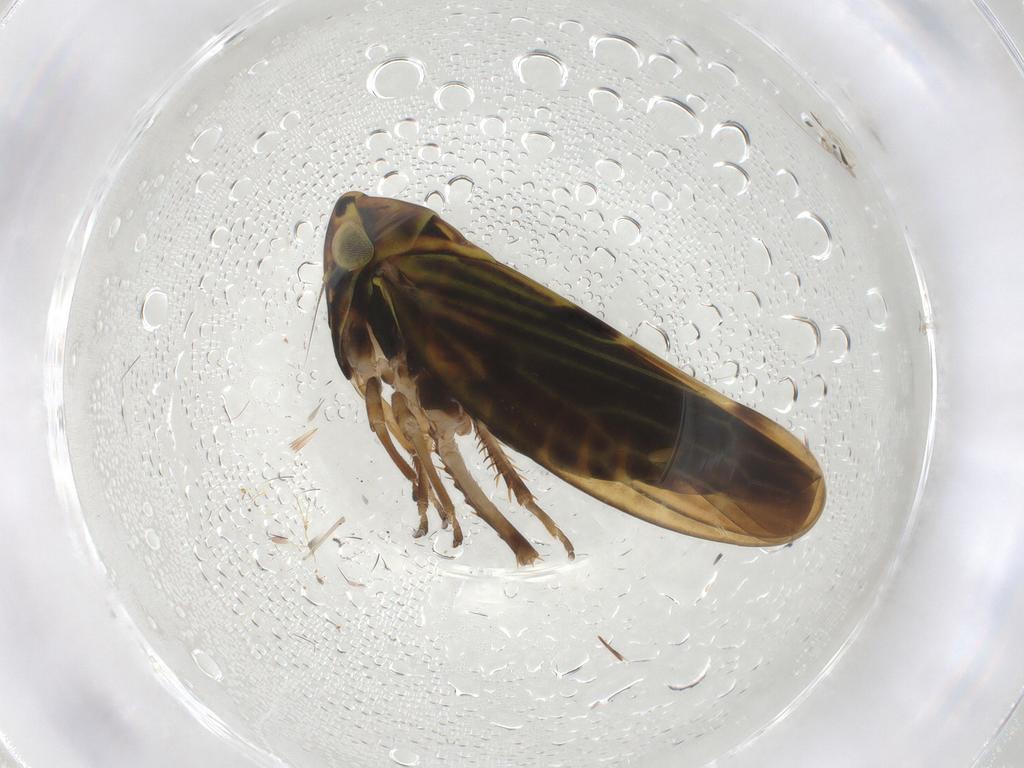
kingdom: Animalia
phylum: Arthropoda
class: Insecta
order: Hemiptera
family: Cicadellidae
